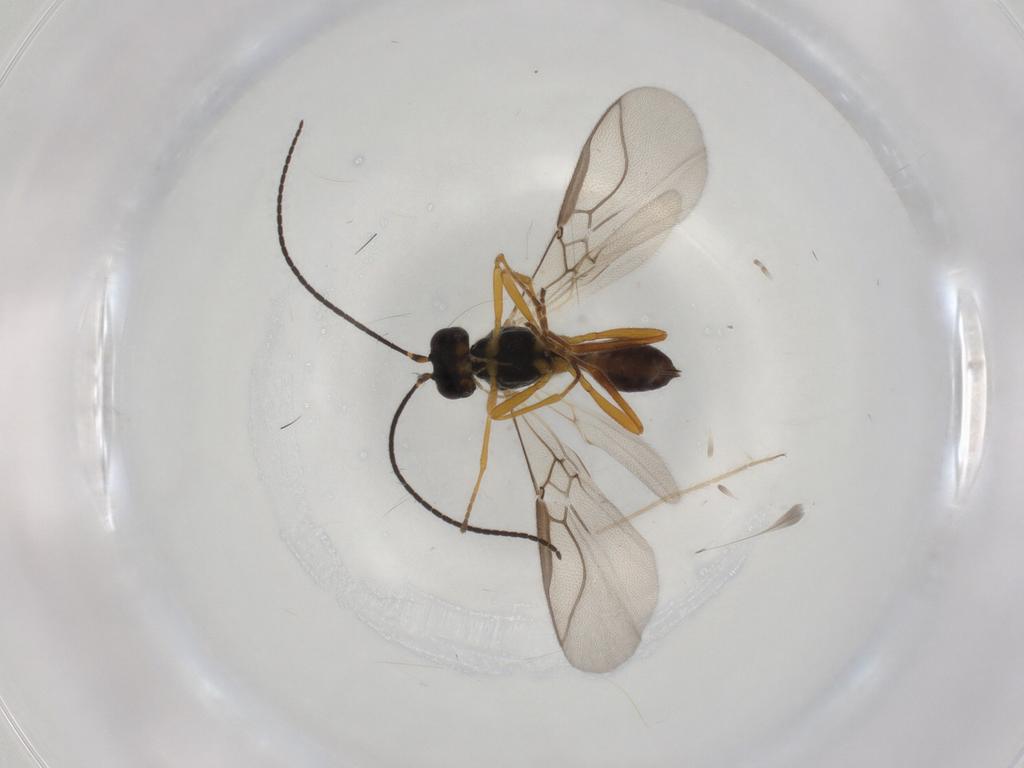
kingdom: Animalia
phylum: Arthropoda
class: Insecta
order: Hymenoptera
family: Braconidae
